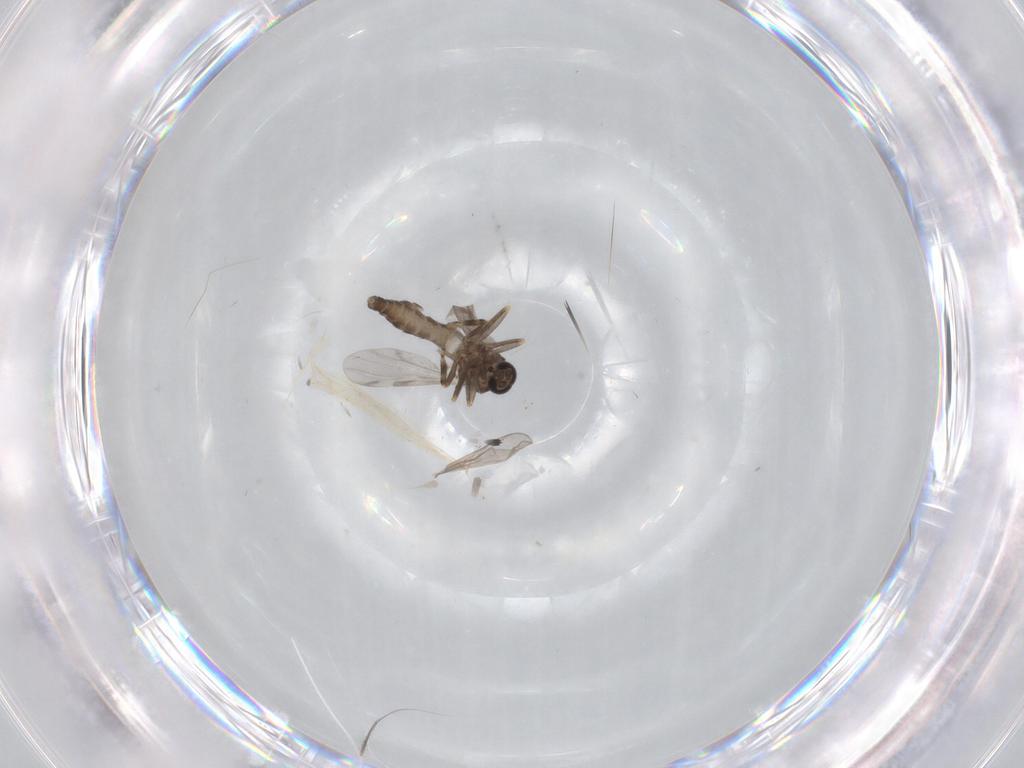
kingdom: Animalia
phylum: Arthropoda
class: Insecta
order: Diptera
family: Ceratopogonidae
